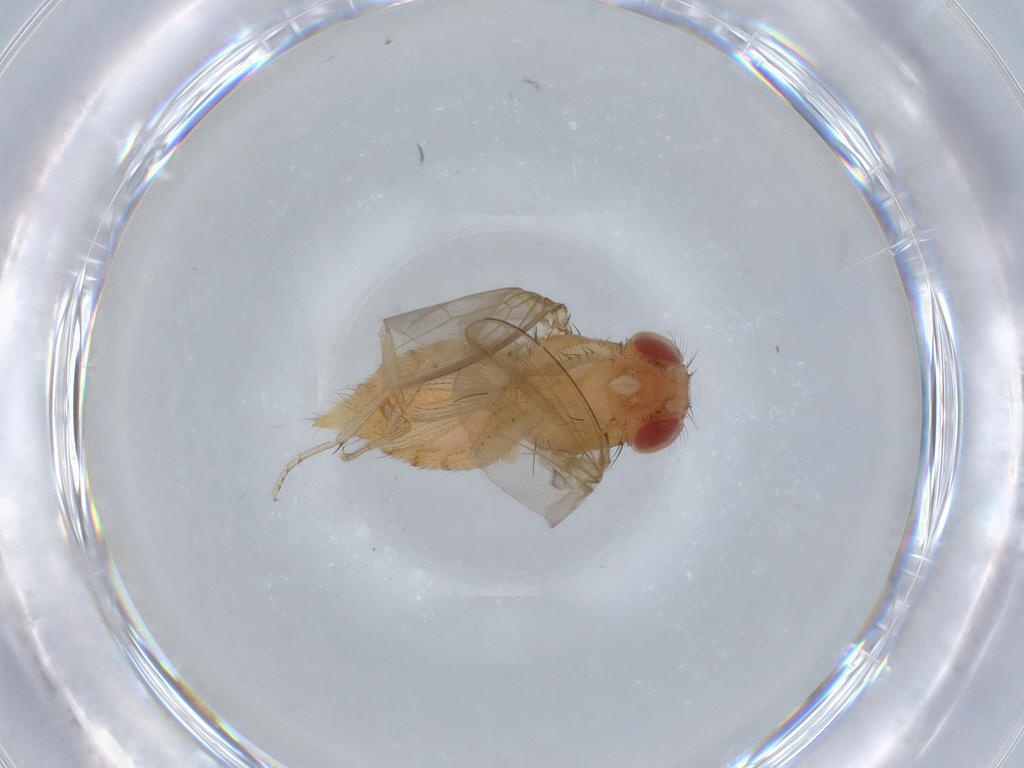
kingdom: Animalia
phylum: Arthropoda
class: Insecta
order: Diptera
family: Drosophilidae
